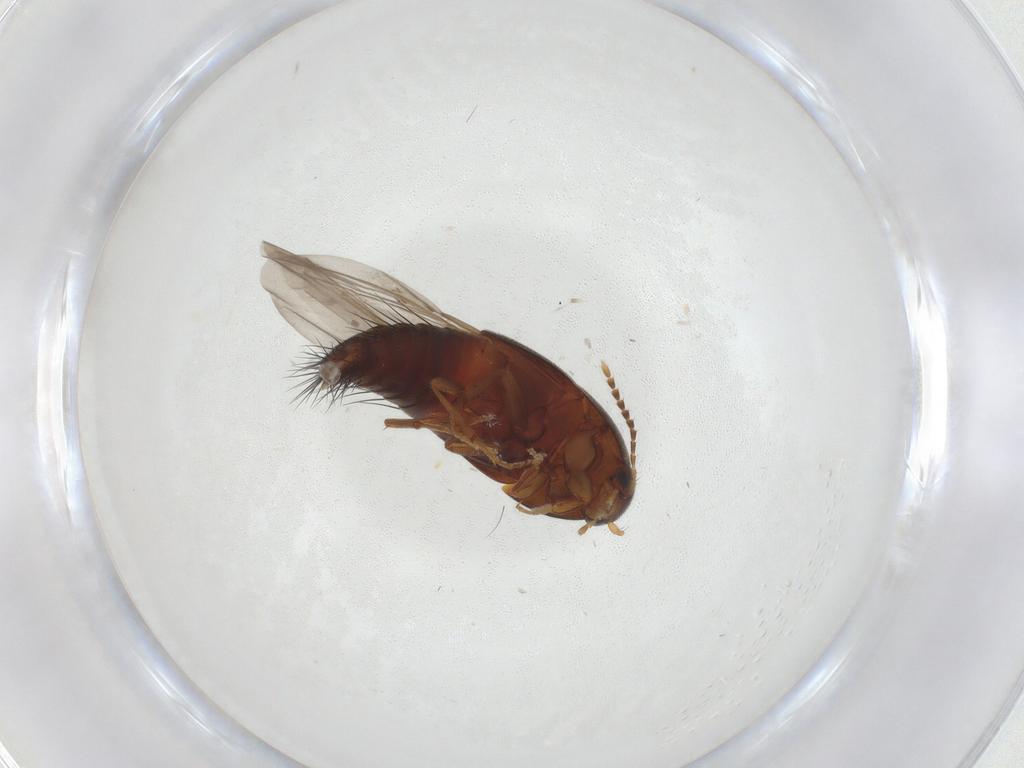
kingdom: Animalia
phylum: Arthropoda
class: Insecta
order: Coleoptera
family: Staphylinidae
